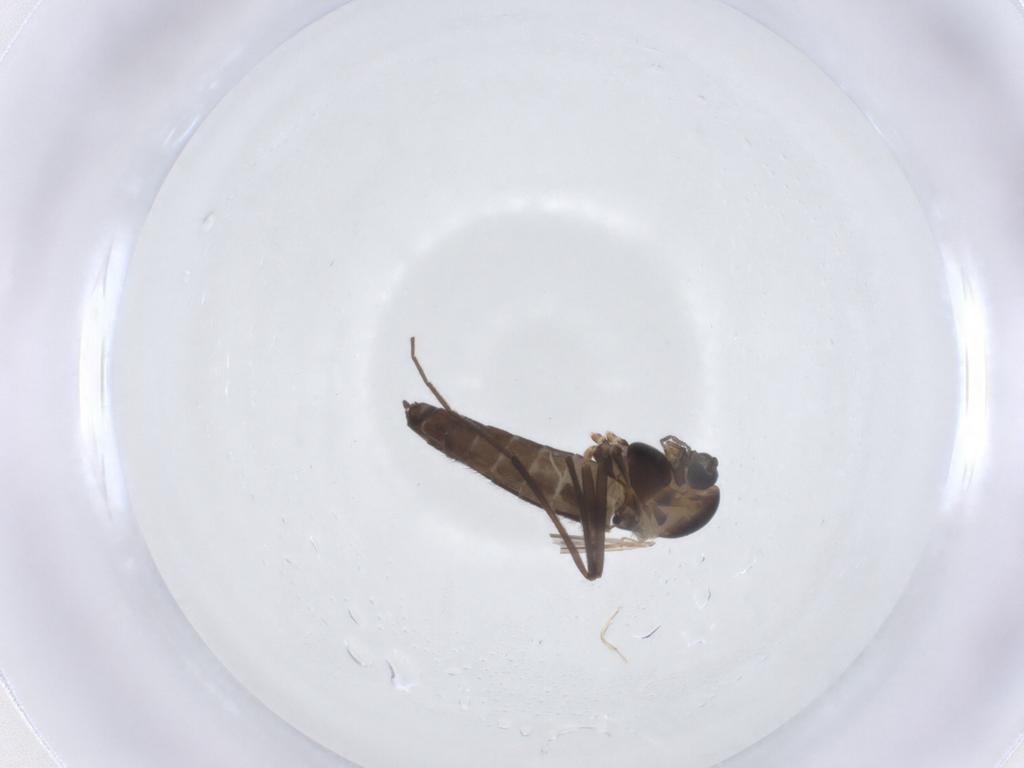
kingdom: Animalia
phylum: Arthropoda
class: Insecta
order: Diptera
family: Chironomidae
